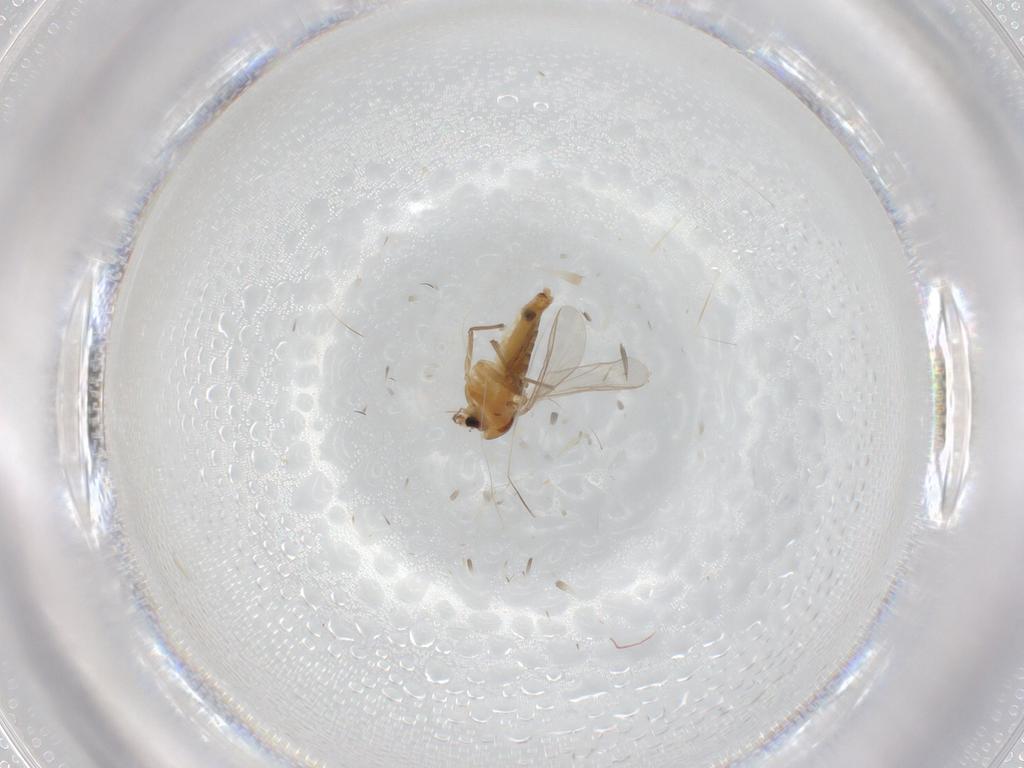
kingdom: Animalia
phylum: Arthropoda
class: Insecta
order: Diptera
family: Chironomidae
